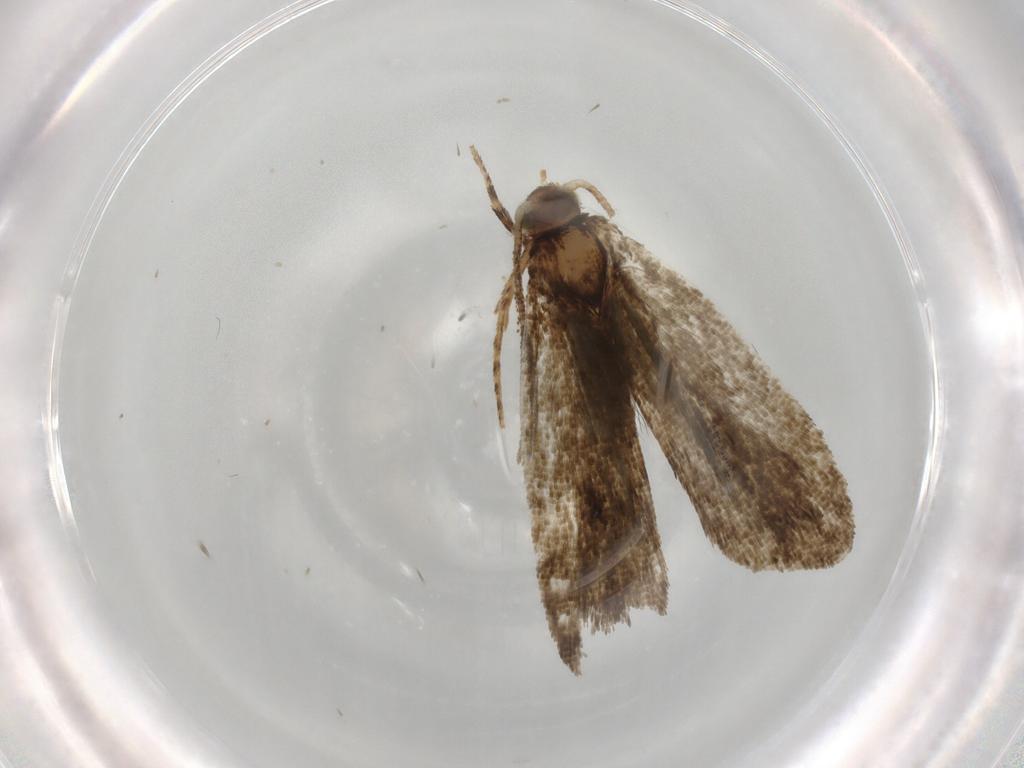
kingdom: Animalia
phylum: Arthropoda
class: Insecta
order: Lepidoptera
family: Tortricidae
